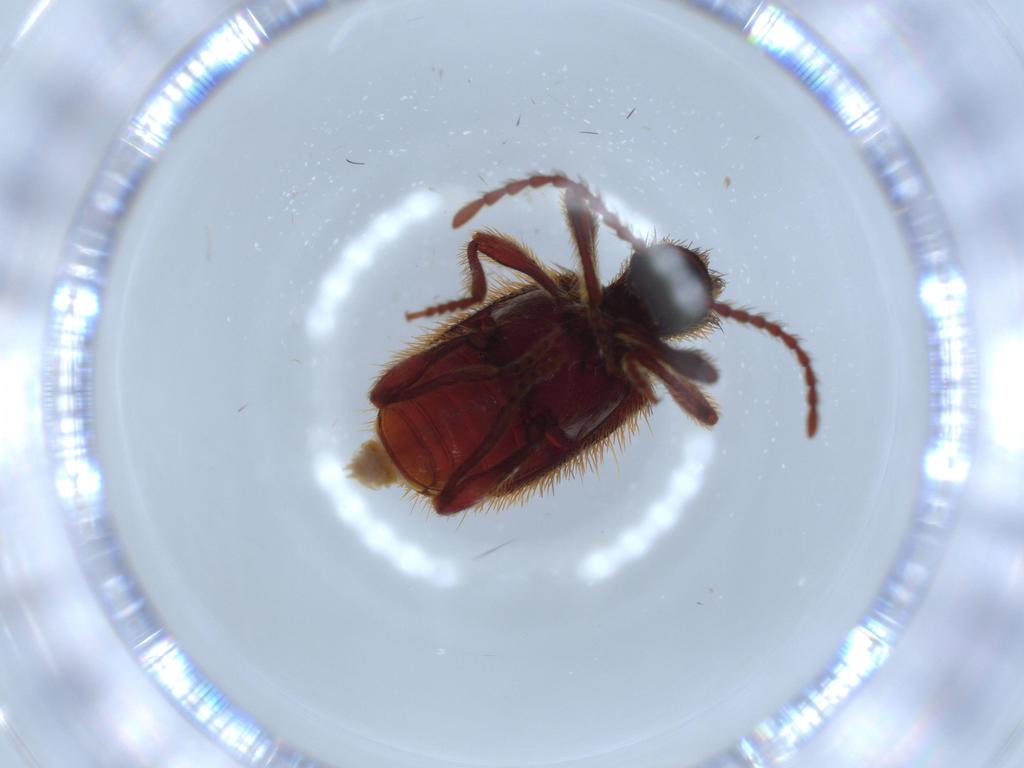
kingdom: Animalia
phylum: Arthropoda
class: Insecta
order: Coleoptera
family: Ptinidae
